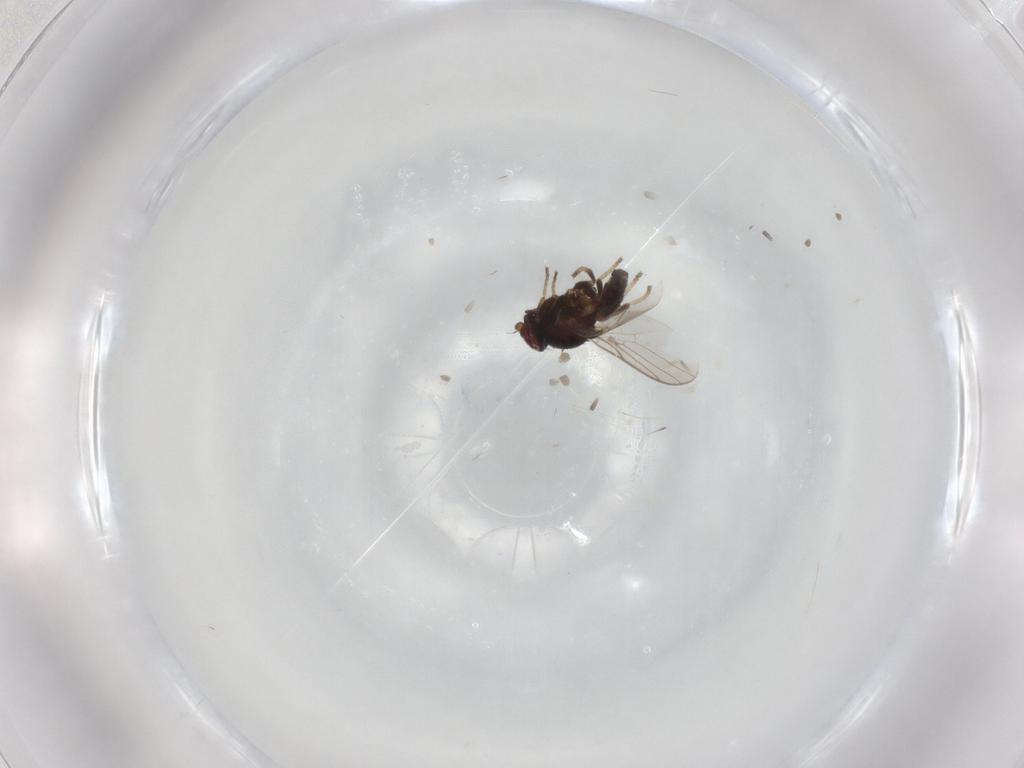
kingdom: Animalia
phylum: Arthropoda
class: Insecta
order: Diptera
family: Chloropidae
